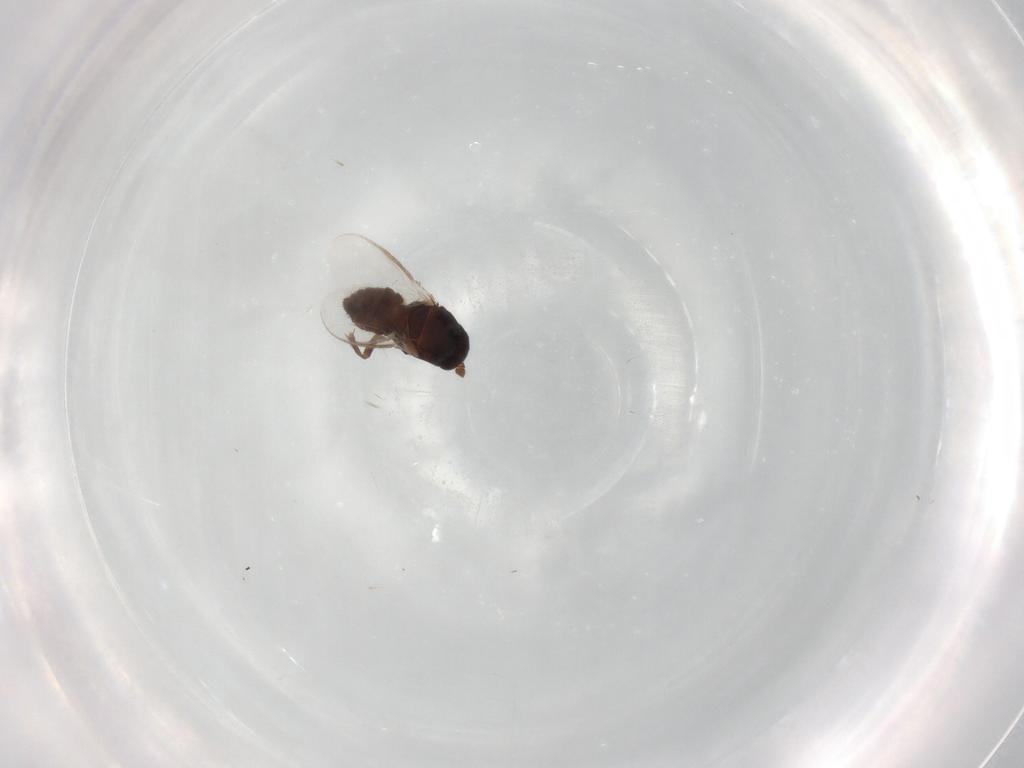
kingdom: Animalia
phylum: Arthropoda
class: Insecta
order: Diptera
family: Sphaeroceridae
